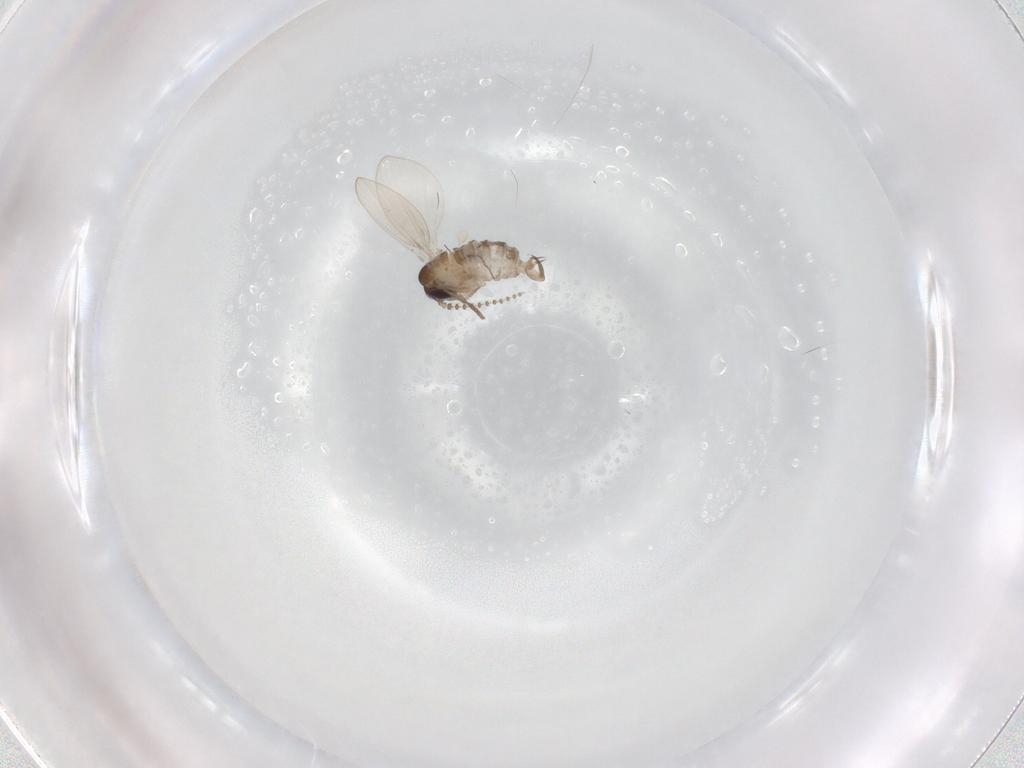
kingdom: Animalia
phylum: Arthropoda
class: Insecta
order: Diptera
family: Psychodidae
